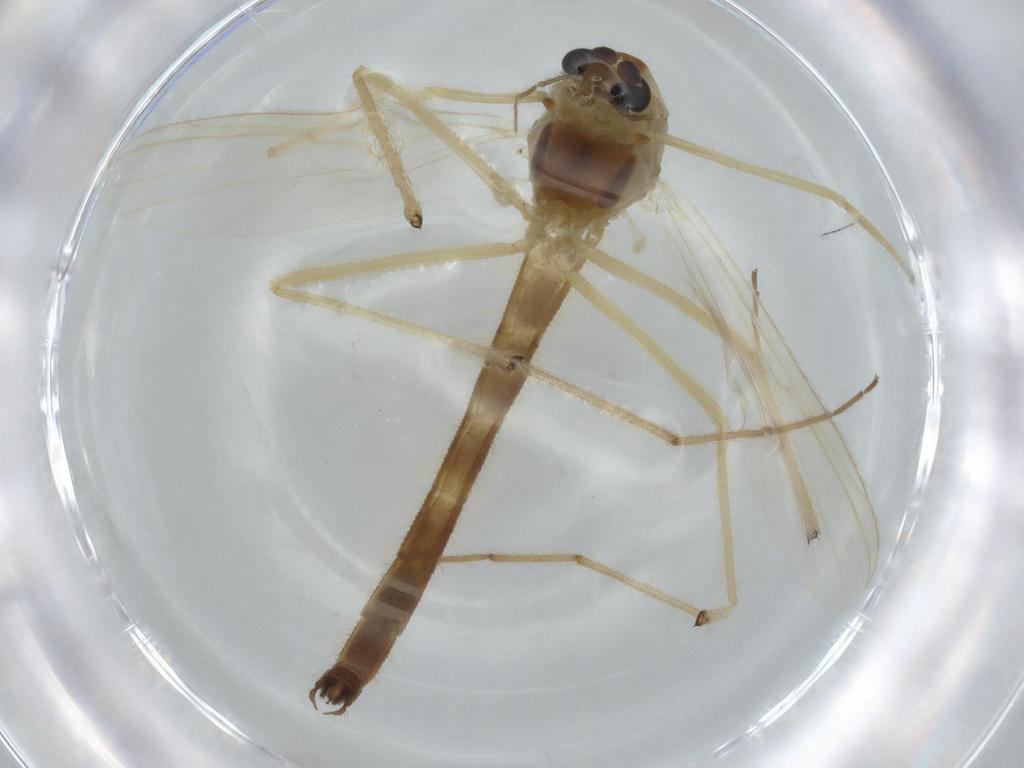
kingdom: Animalia
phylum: Arthropoda
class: Insecta
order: Diptera
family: Chironomidae
